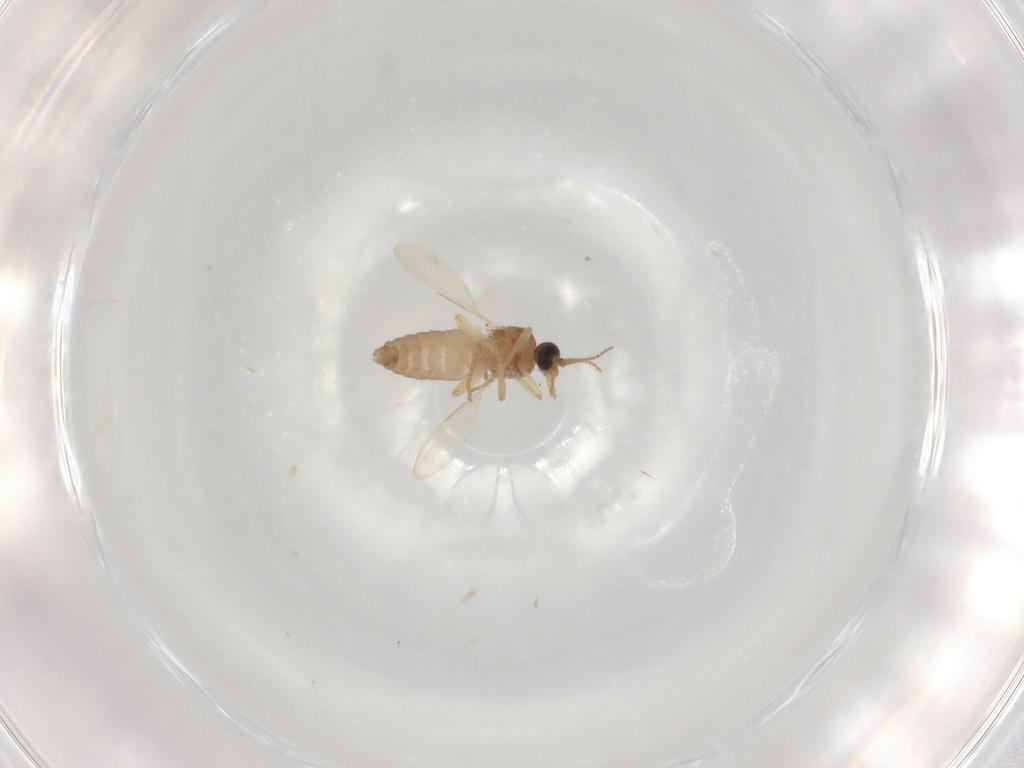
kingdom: Animalia
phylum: Arthropoda
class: Insecta
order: Diptera
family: Ceratopogonidae
